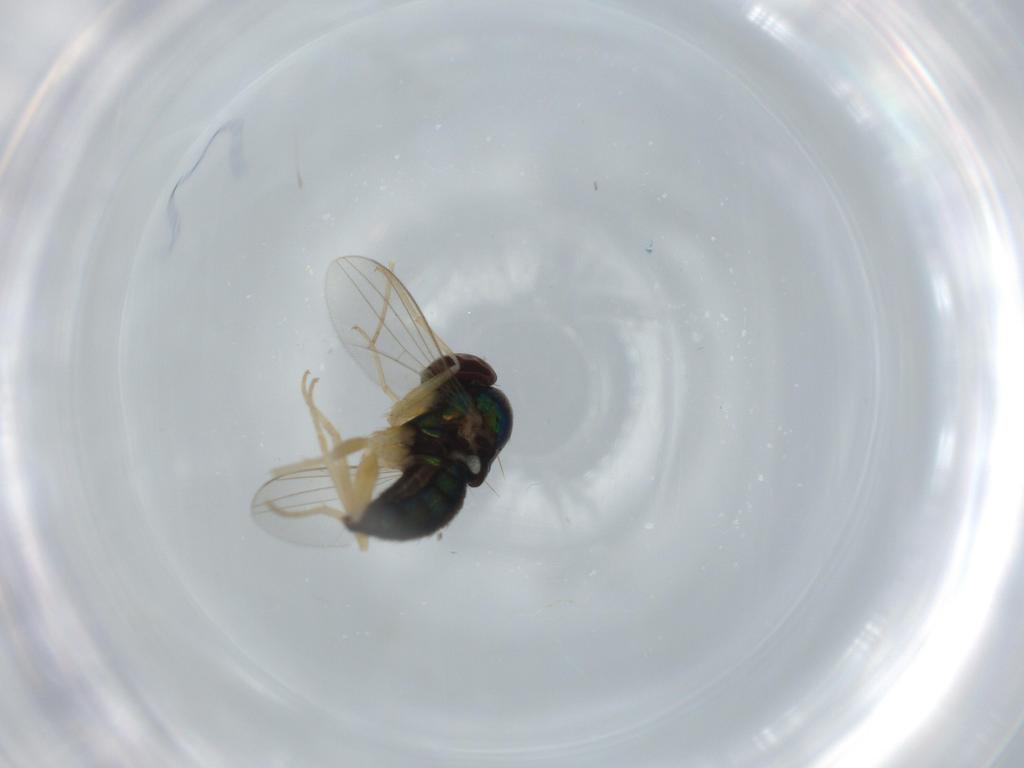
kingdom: Animalia
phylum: Arthropoda
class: Insecta
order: Diptera
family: Dolichopodidae
